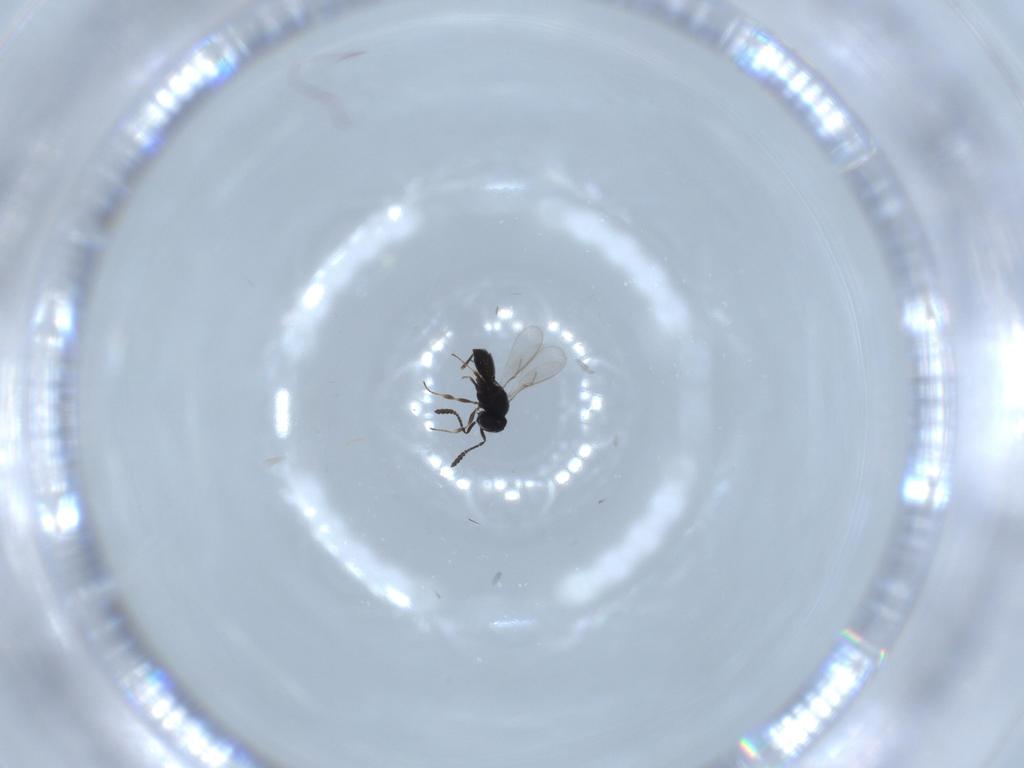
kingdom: Animalia
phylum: Arthropoda
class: Insecta
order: Hymenoptera
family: Scelionidae
